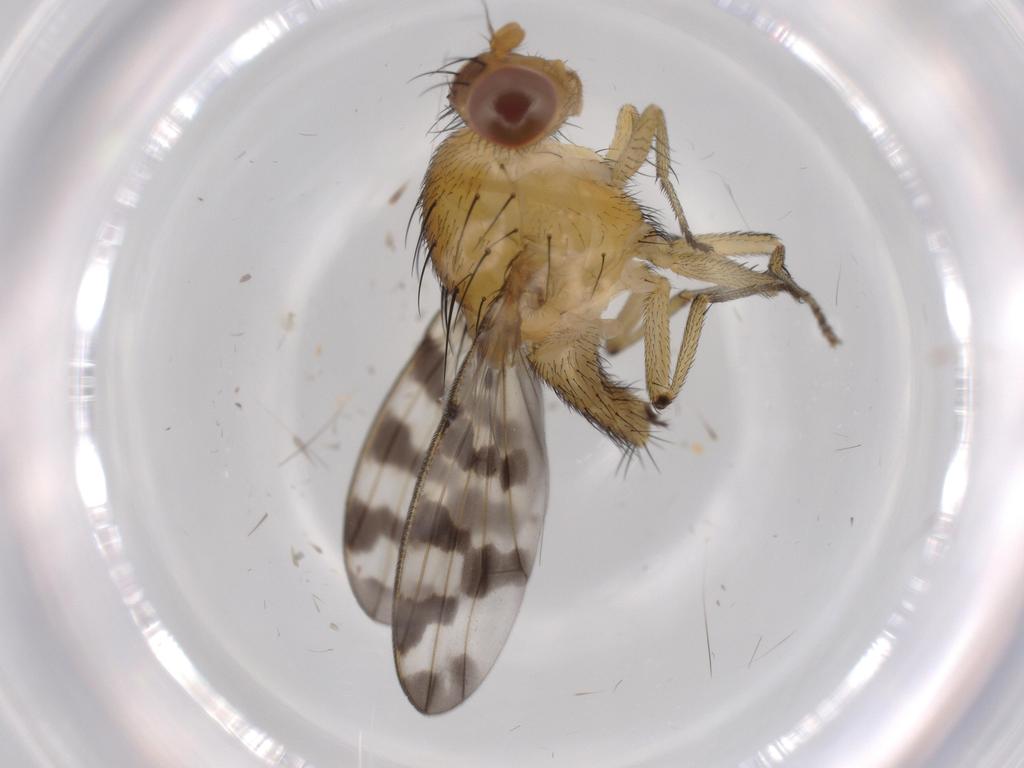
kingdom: Animalia
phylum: Arthropoda
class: Insecta
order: Diptera
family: Sciaridae
